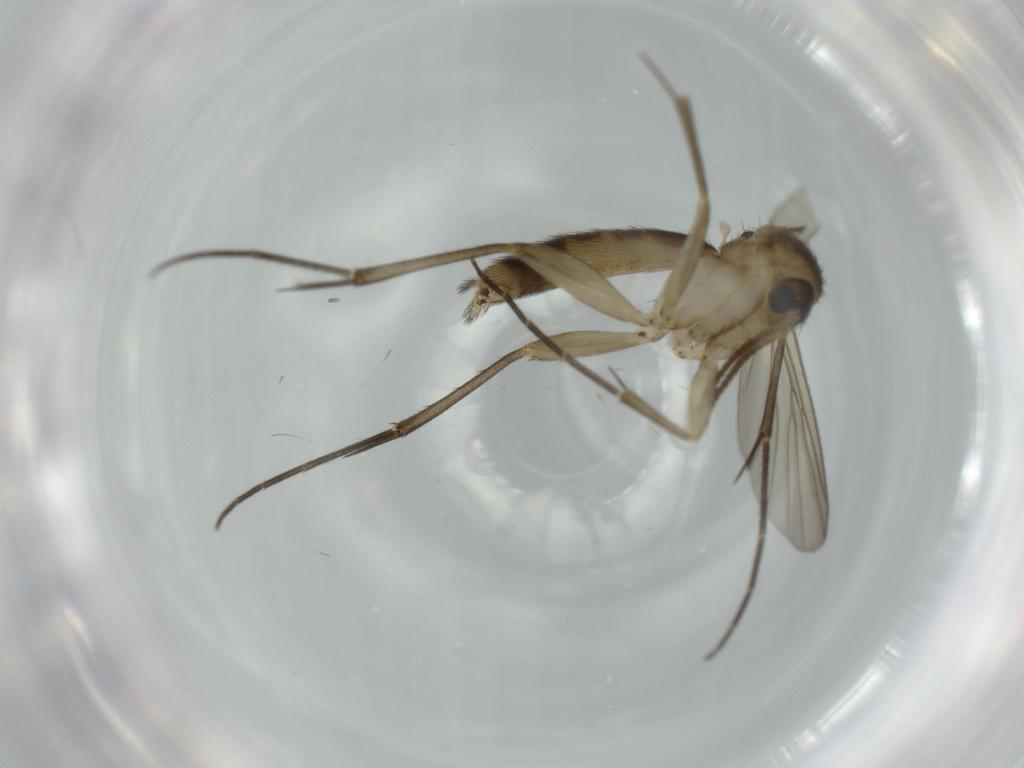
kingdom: Animalia
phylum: Arthropoda
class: Insecta
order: Diptera
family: Mycetophilidae
